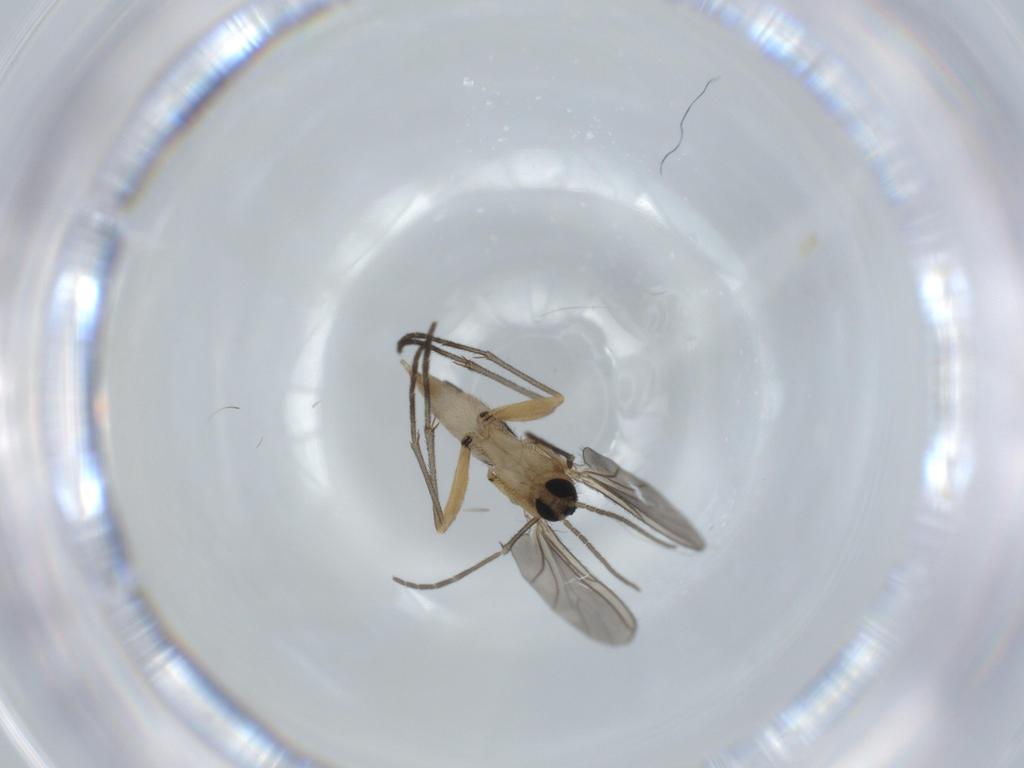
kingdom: Animalia
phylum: Arthropoda
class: Insecta
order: Diptera
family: Sciaridae
